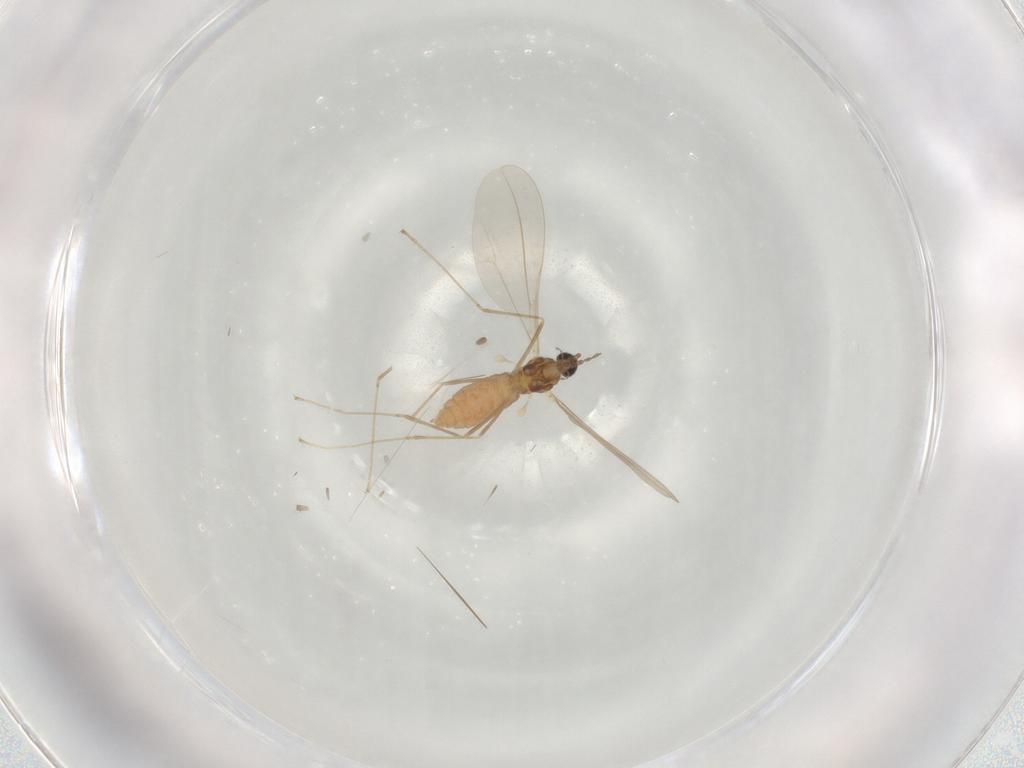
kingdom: Animalia
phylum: Arthropoda
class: Insecta
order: Diptera
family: Cecidomyiidae
